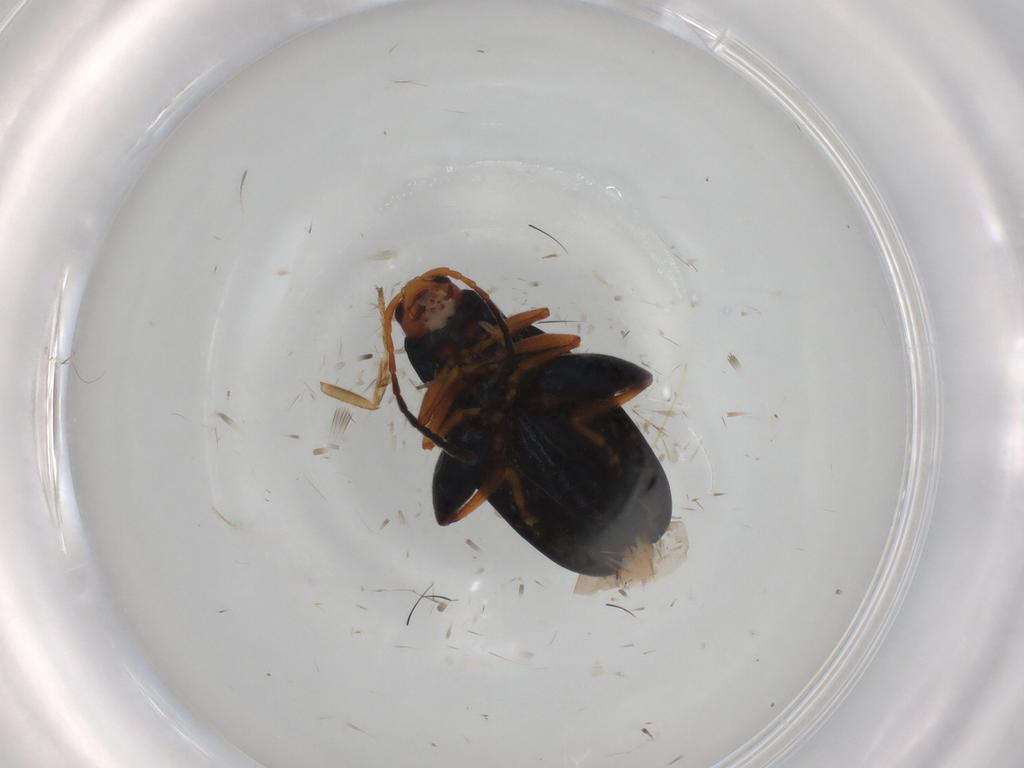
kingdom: Animalia
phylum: Arthropoda
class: Insecta
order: Coleoptera
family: Chrysomelidae
